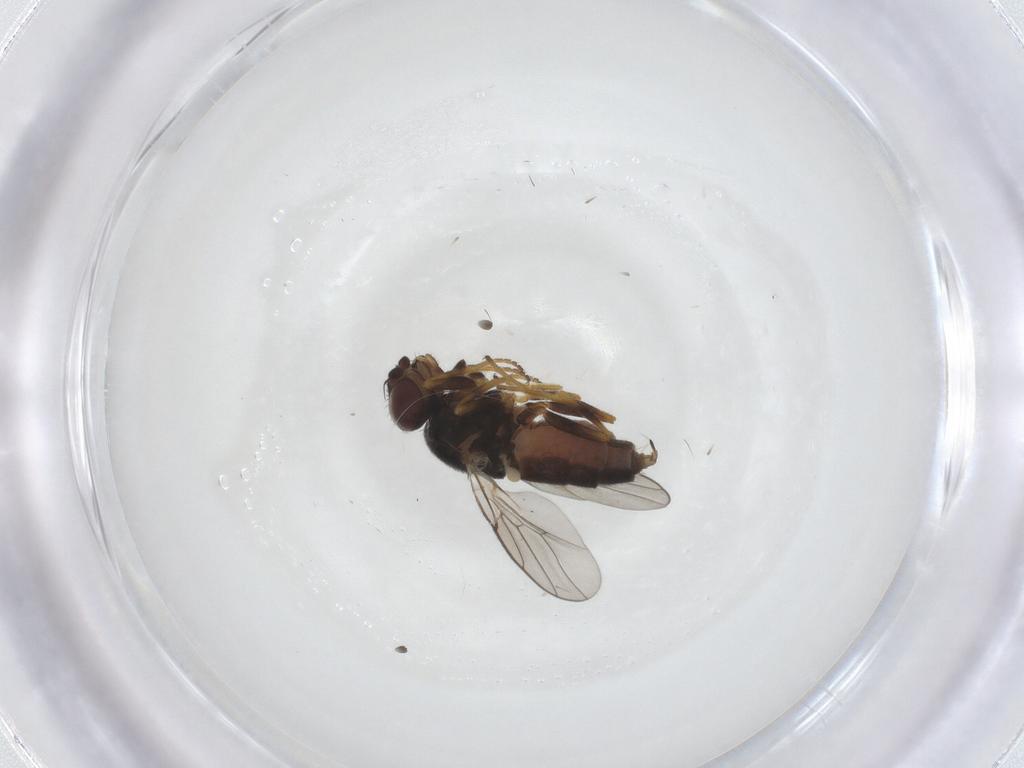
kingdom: Animalia
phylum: Arthropoda
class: Insecta
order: Diptera
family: Chloropidae
